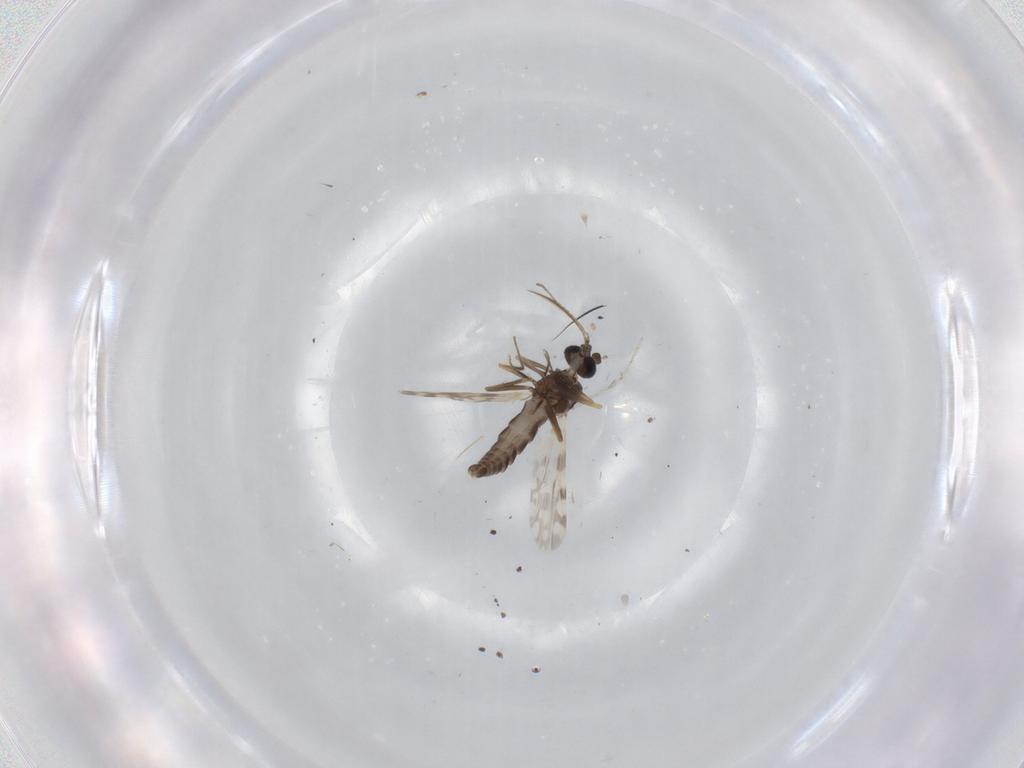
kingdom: Animalia
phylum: Arthropoda
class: Insecta
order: Diptera
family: Ceratopogonidae
